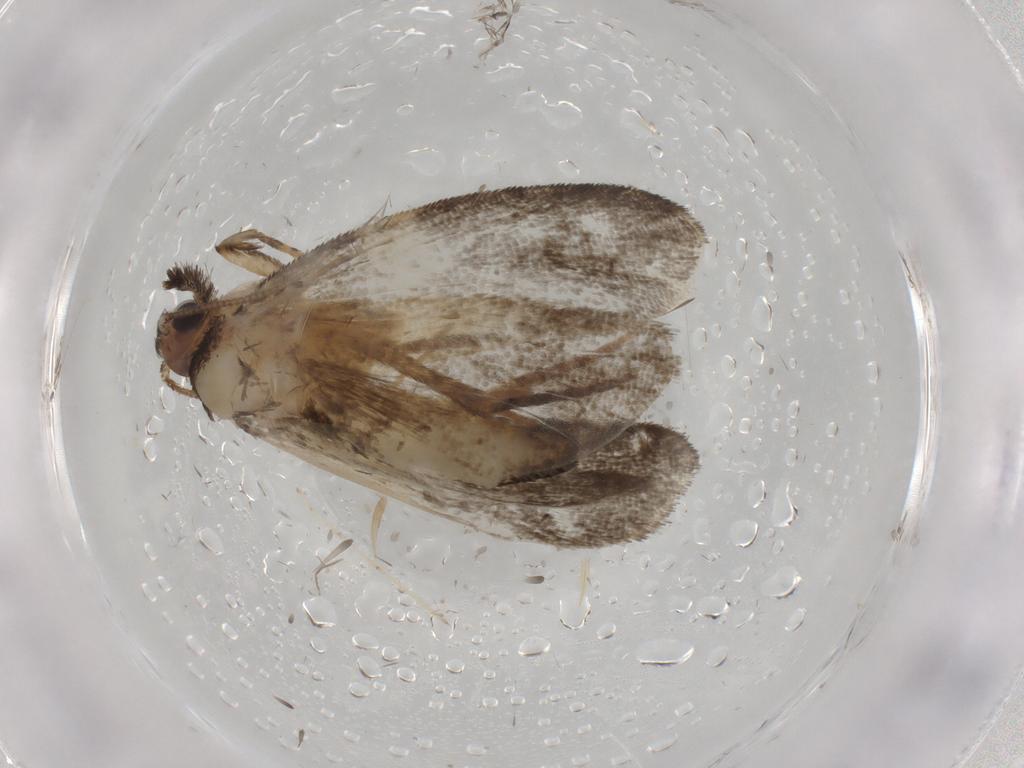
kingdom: Animalia
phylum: Arthropoda
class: Insecta
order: Lepidoptera
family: Psychidae
